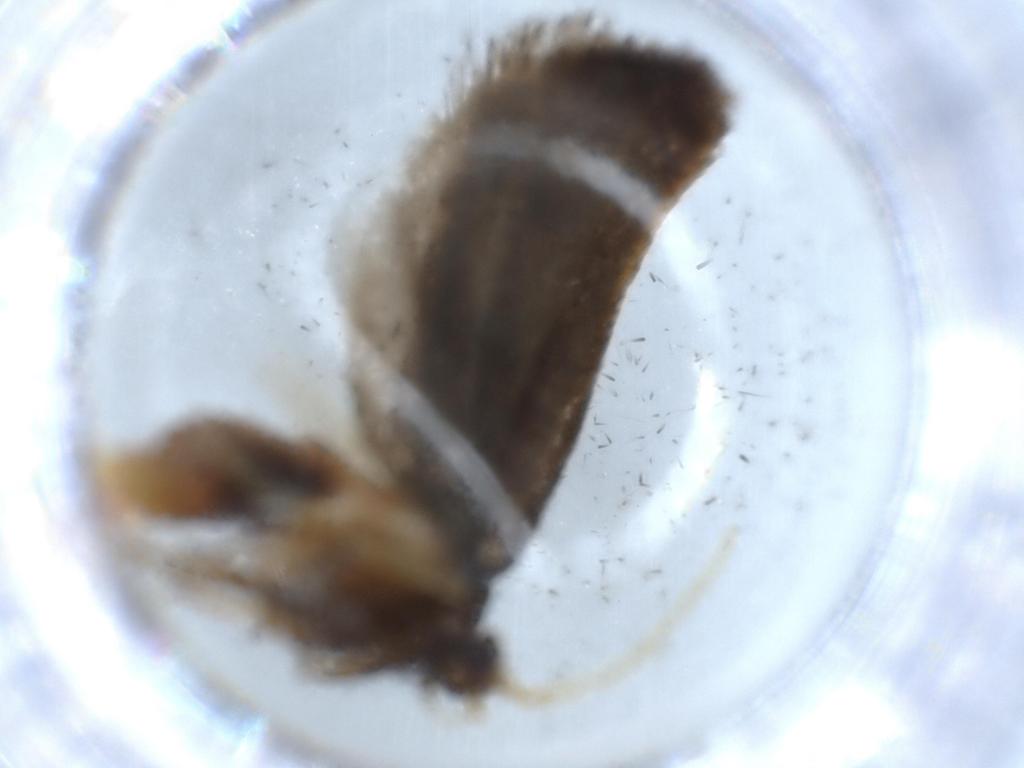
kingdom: Animalia
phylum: Arthropoda
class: Insecta
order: Lepidoptera
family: Lecithoceridae
